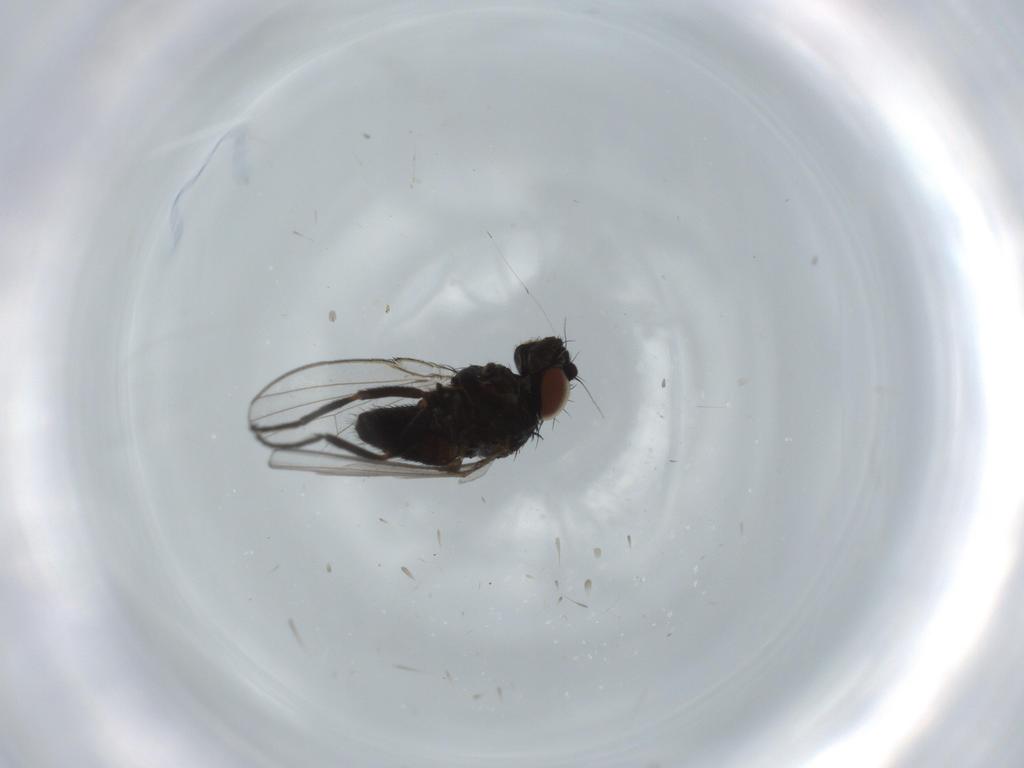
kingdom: Animalia
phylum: Arthropoda
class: Insecta
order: Diptera
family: Milichiidae
